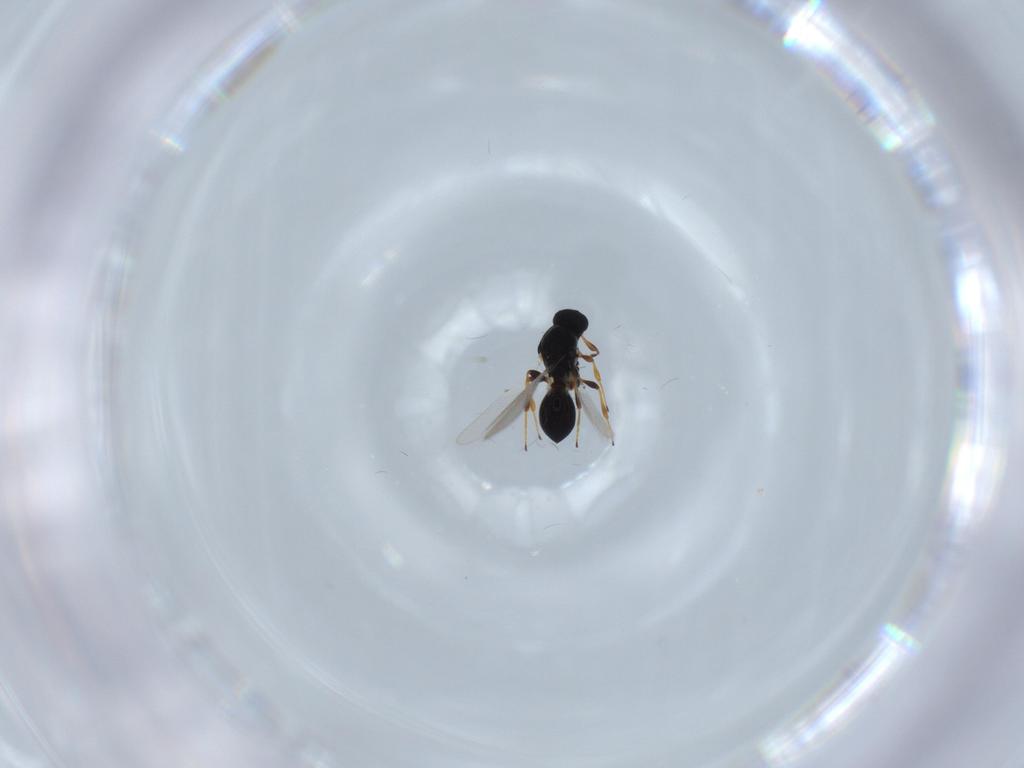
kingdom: Animalia
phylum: Arthropoda
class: Insecta
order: Hymenoptera
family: Platygastridae
